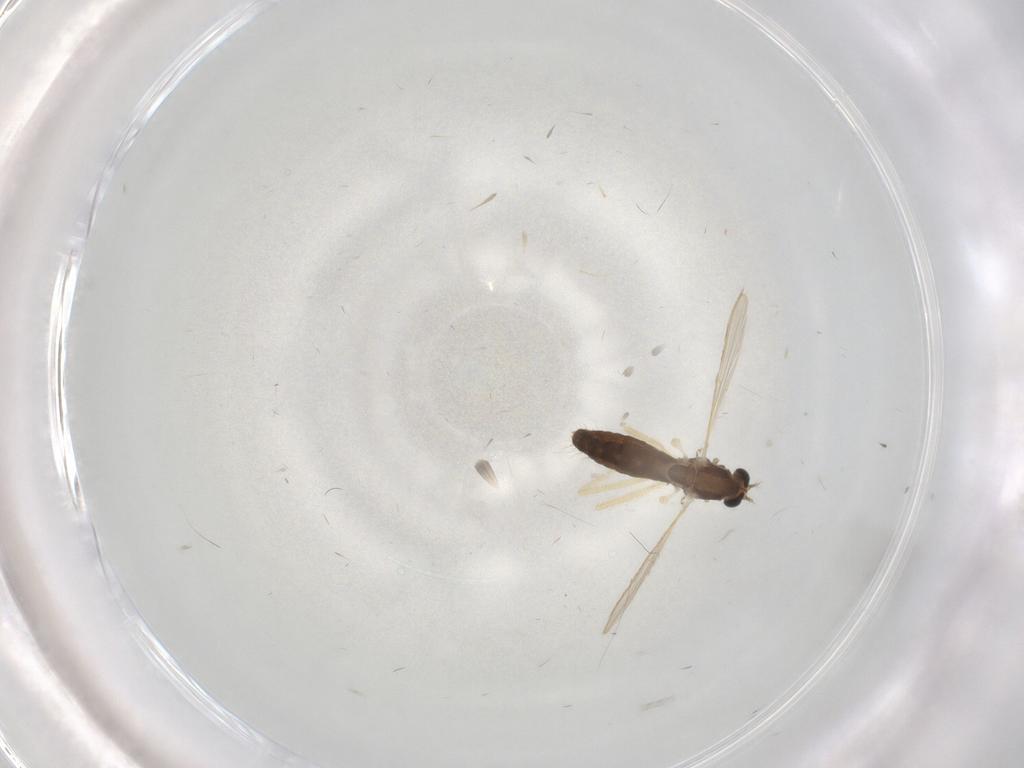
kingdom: Animalia
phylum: Arthropoda
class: Insecta
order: Diptera
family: Chironomidae
